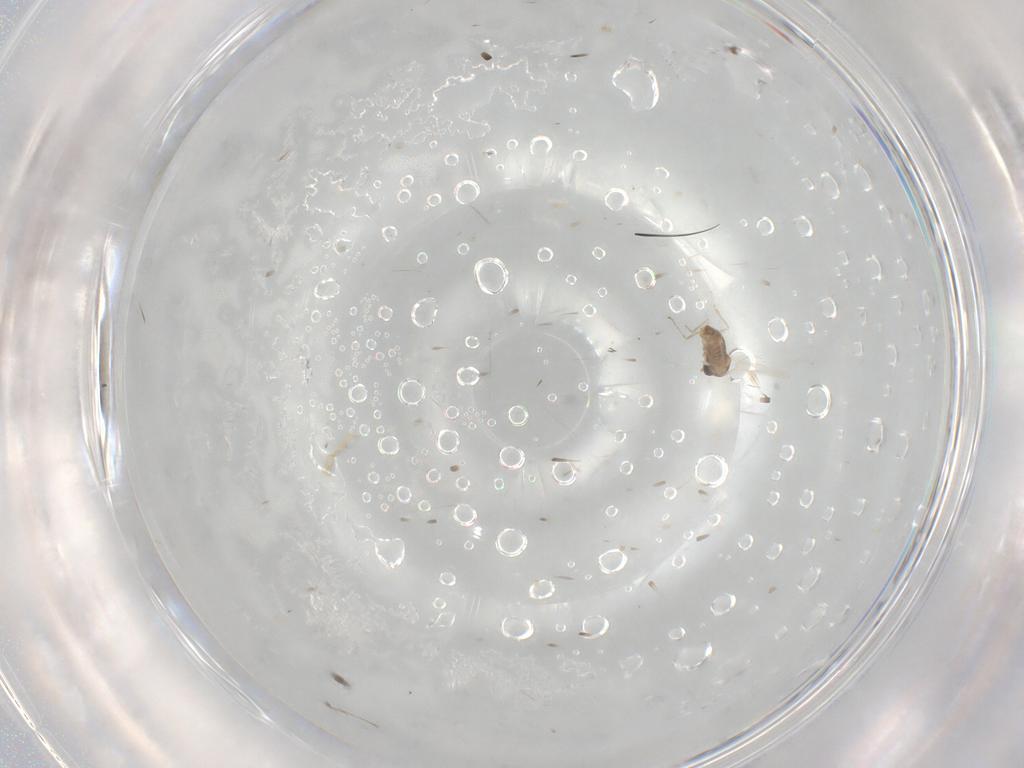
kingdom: Animalia
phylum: Arthropoda
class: Insecta
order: Diptera
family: Cecidomyiidae
